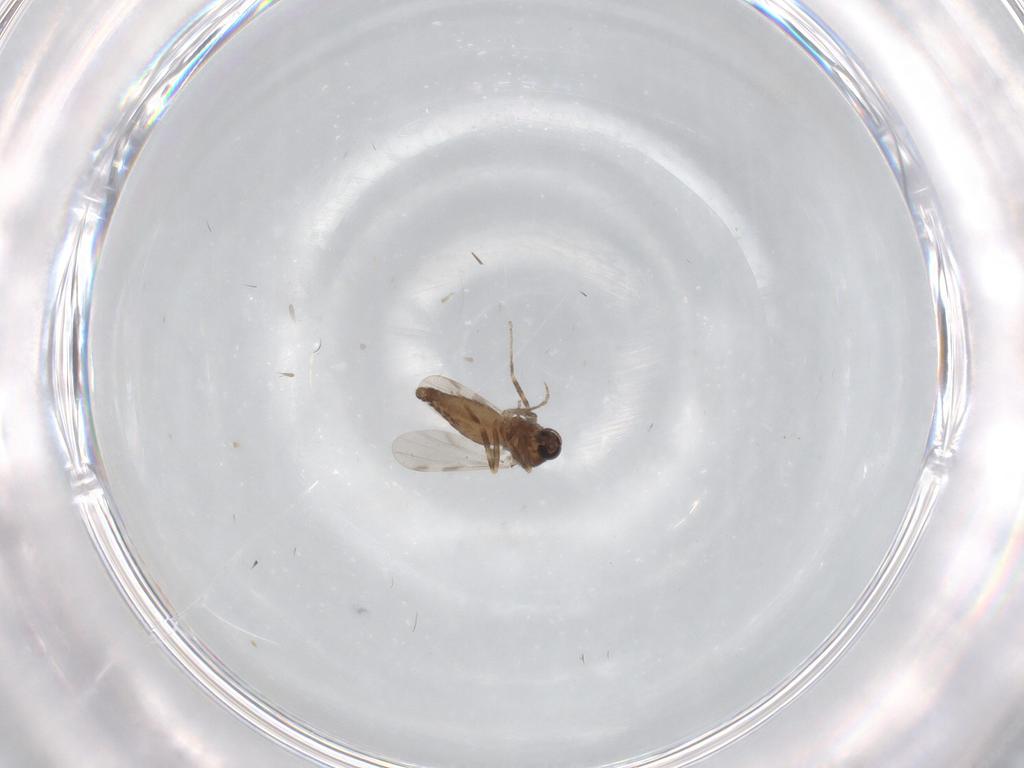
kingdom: Animalia
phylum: Arthropoda
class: Insecta
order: Diptera
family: Ceratopogonidae
